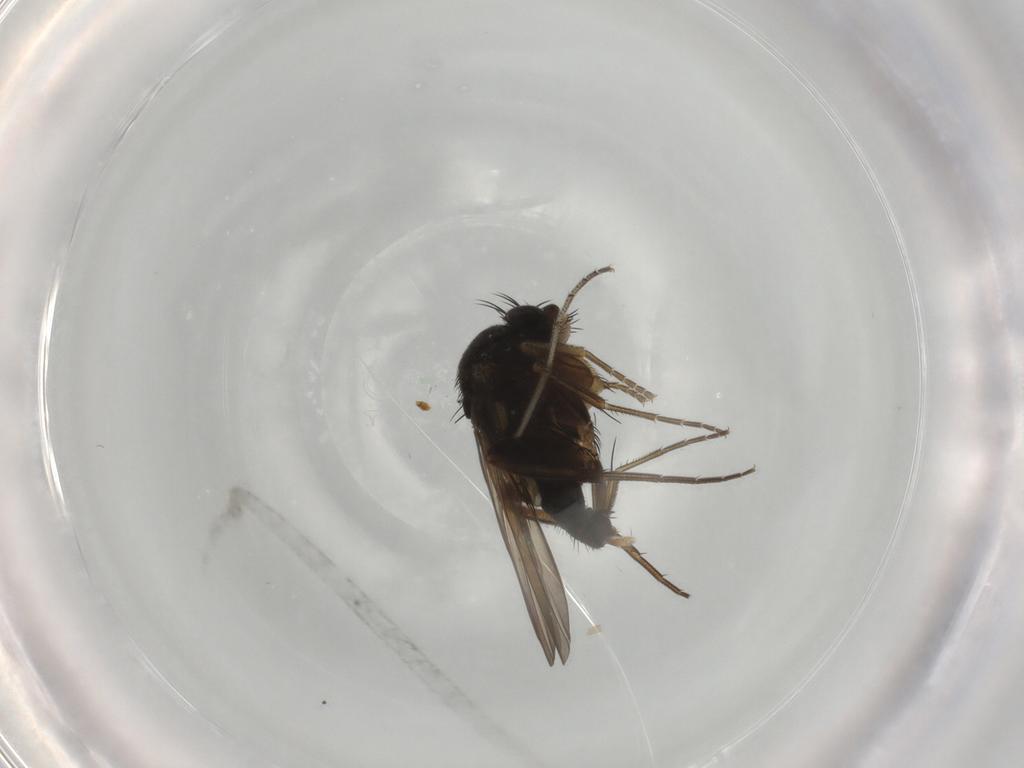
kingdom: Animalia
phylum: Arthropoda
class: Insecta
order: Diptera
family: Phoridae
